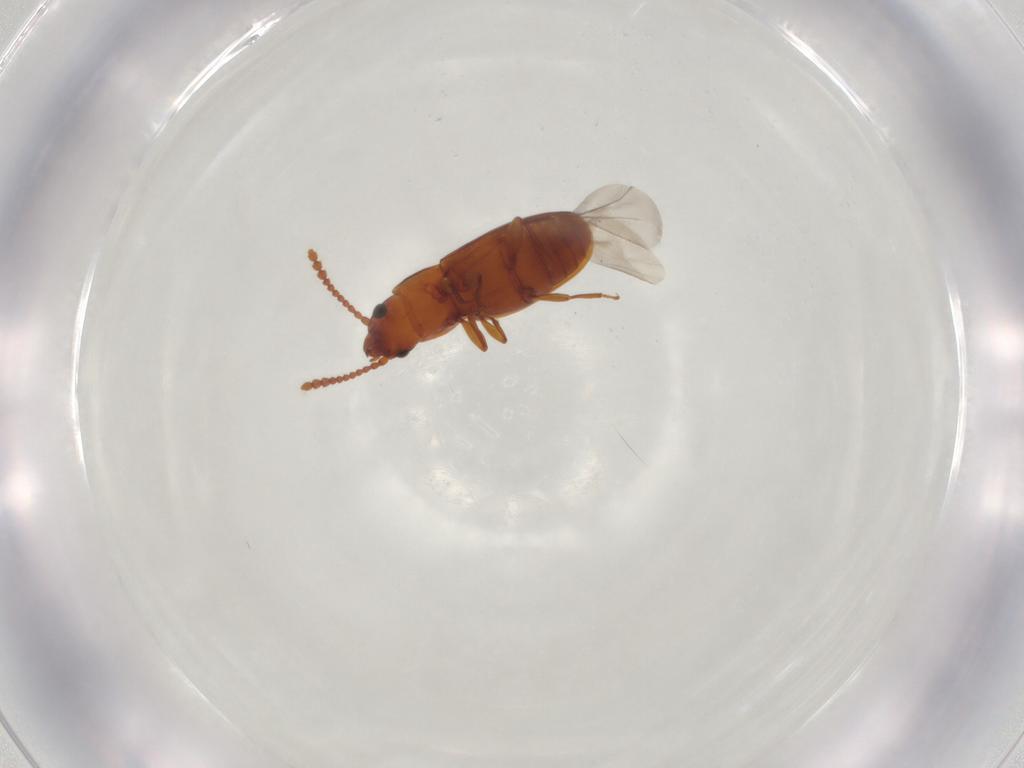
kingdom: Animalia
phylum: Arthropoda
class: Insecta
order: Coleoptera
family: Laemophloeidae
